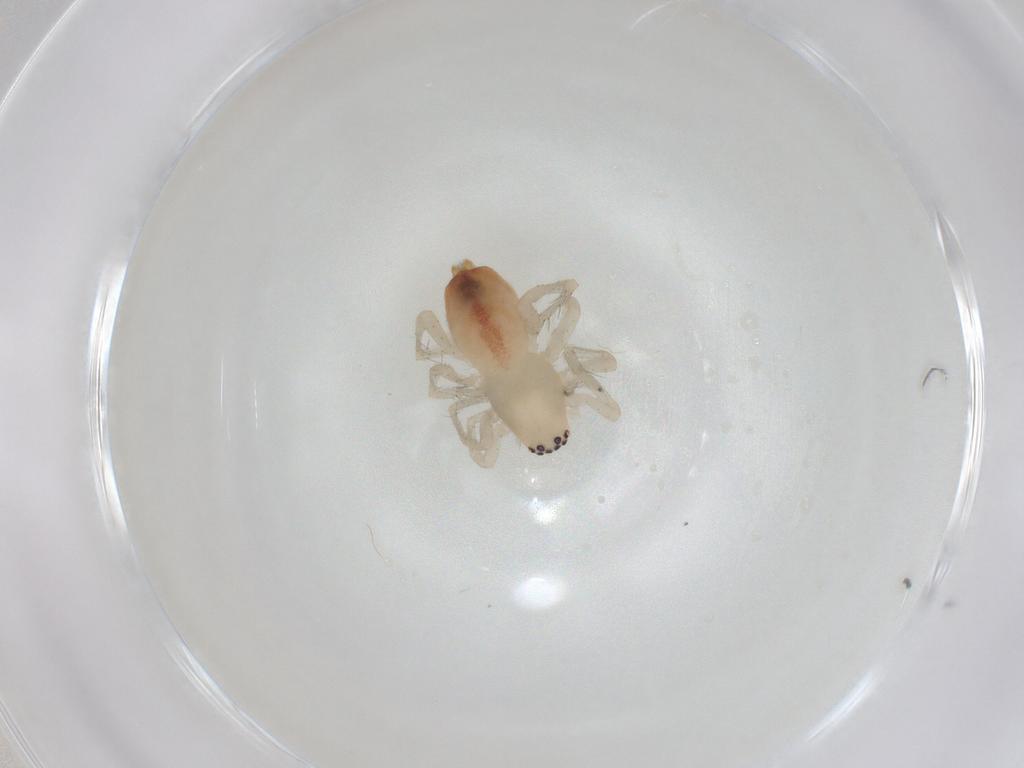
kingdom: Animalia
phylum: Arthropoda
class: Arachnida
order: Araneae
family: Clubionidae
